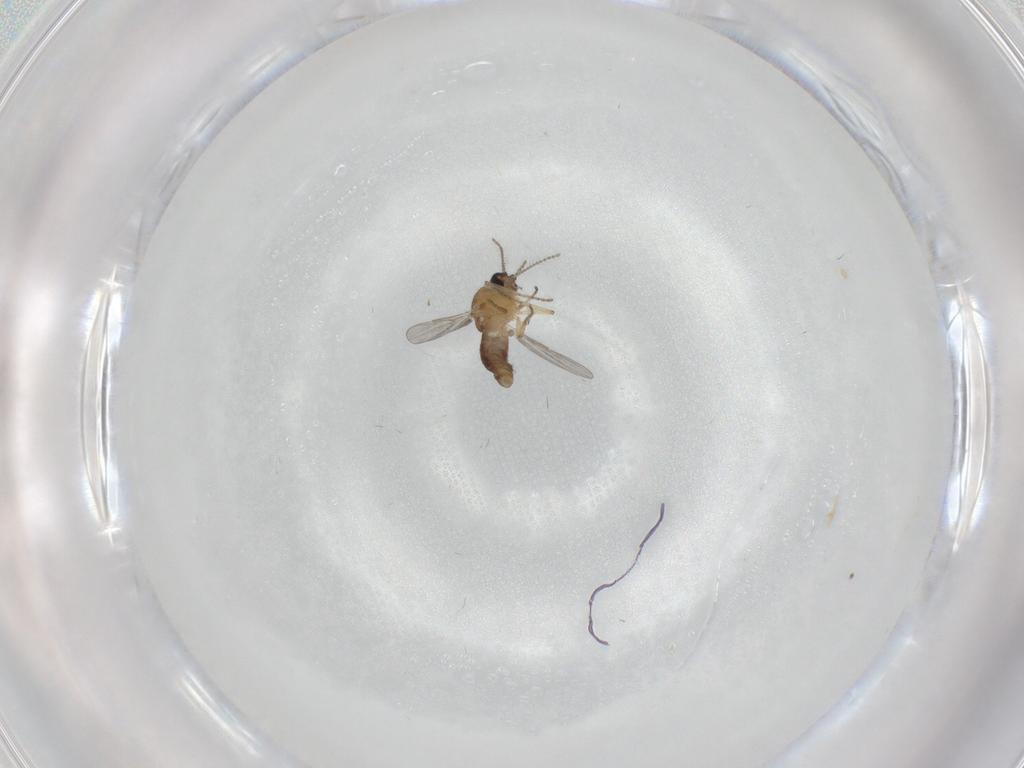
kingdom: Animalia
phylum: Arthropoda
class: Insecta
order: Diptera
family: Ceratopogonidae
